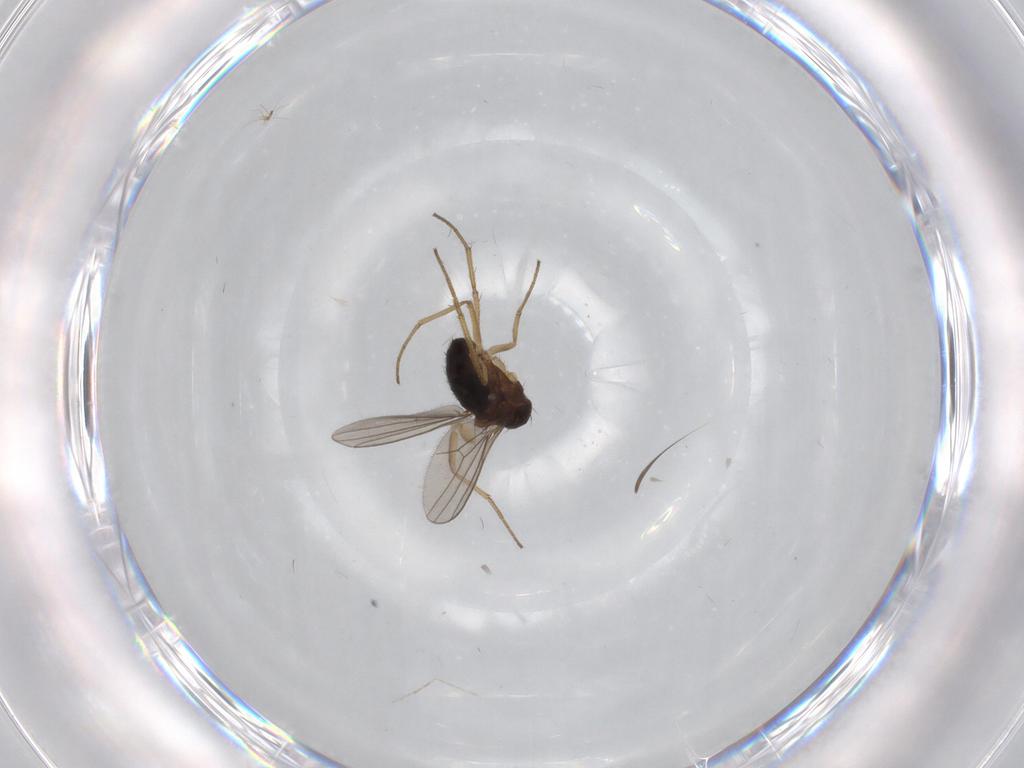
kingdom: Animalia
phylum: Arthropoda
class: Insecta
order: Diptera
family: Dolichopodidae
